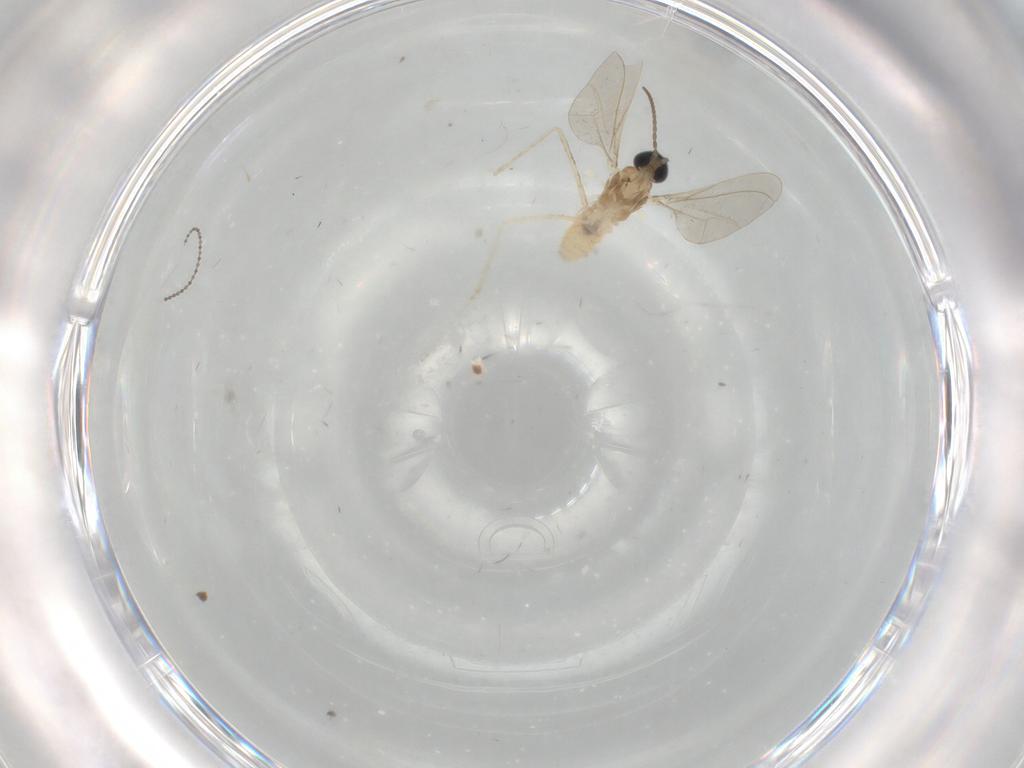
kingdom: Animalia
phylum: Arthropoda
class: Insecta
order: Diptera
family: Cecidomyiidae
